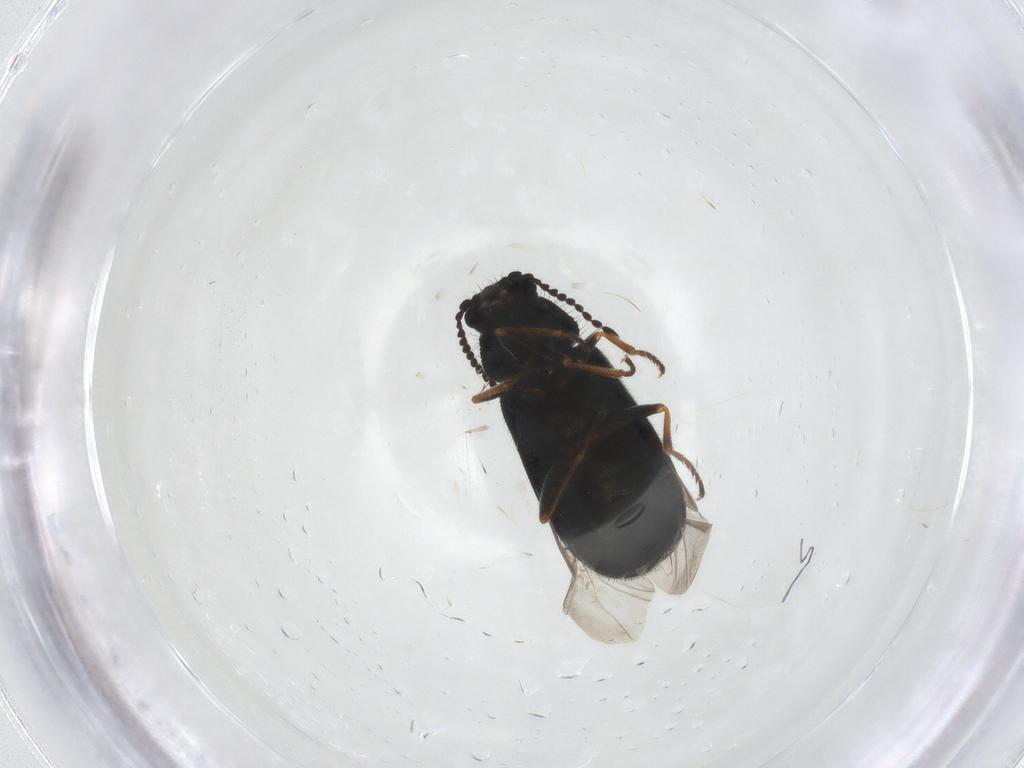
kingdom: Animalia
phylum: Arthropoda
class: Insecta
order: Coleoptera
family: Melyridae
